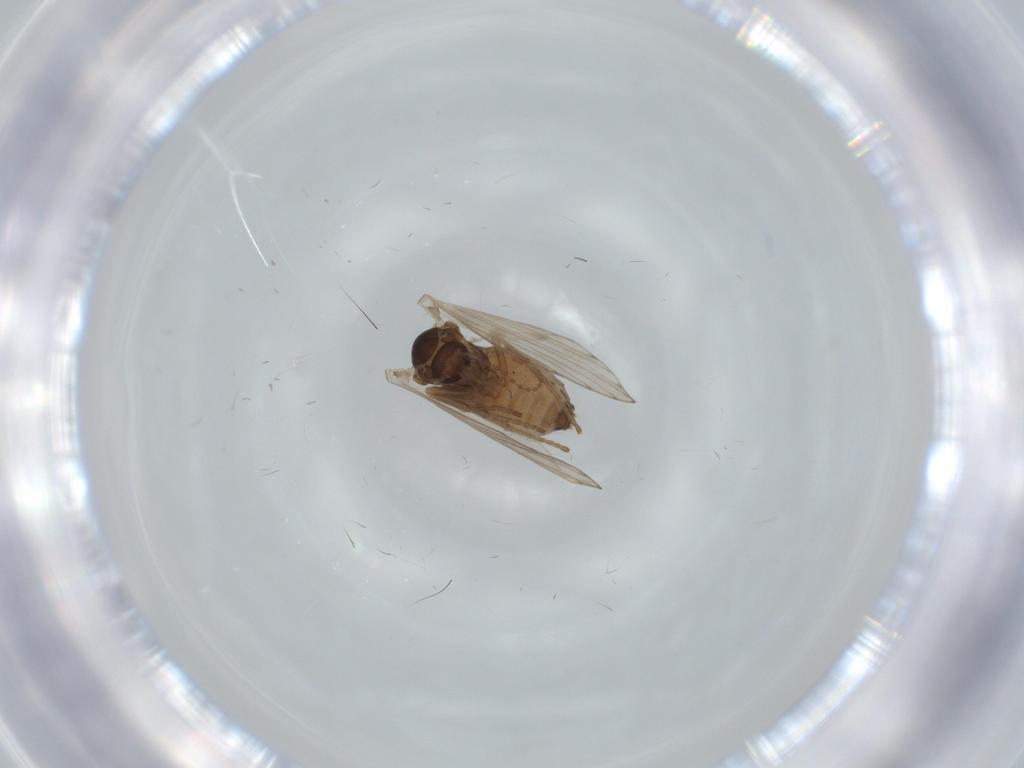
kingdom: Animalia
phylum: Arthropoda
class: Insecta
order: Diptera
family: Psychodidae
